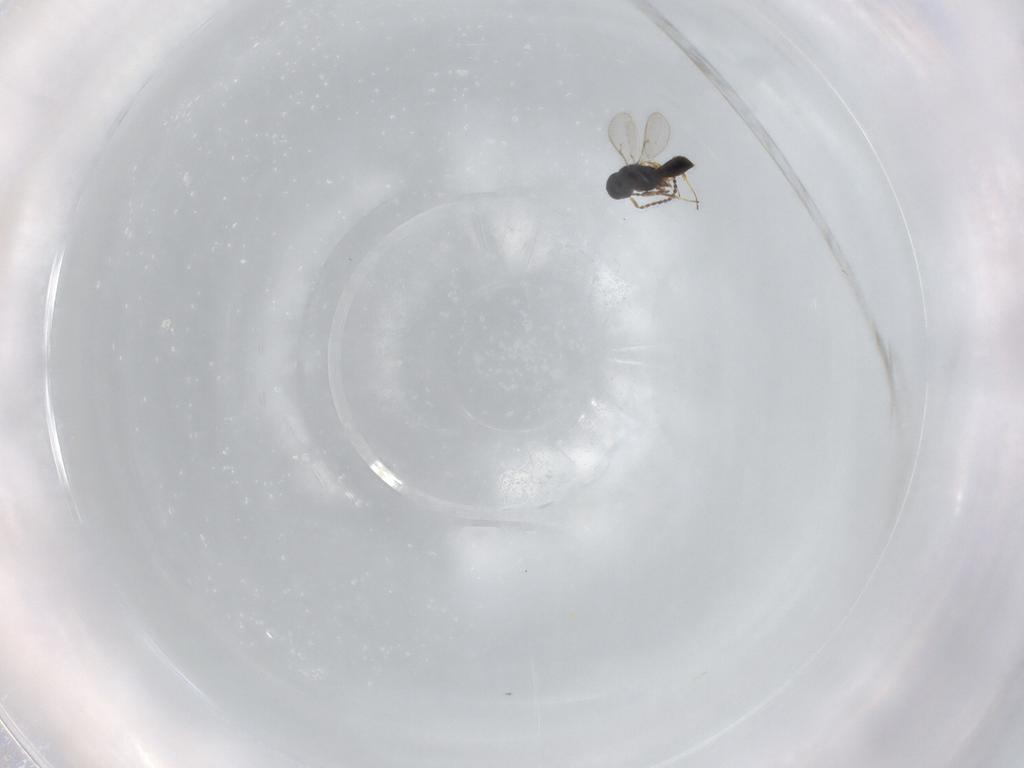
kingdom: Animalia
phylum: Arthropoda
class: Insecta
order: Hymenoptera
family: Scelionidae
